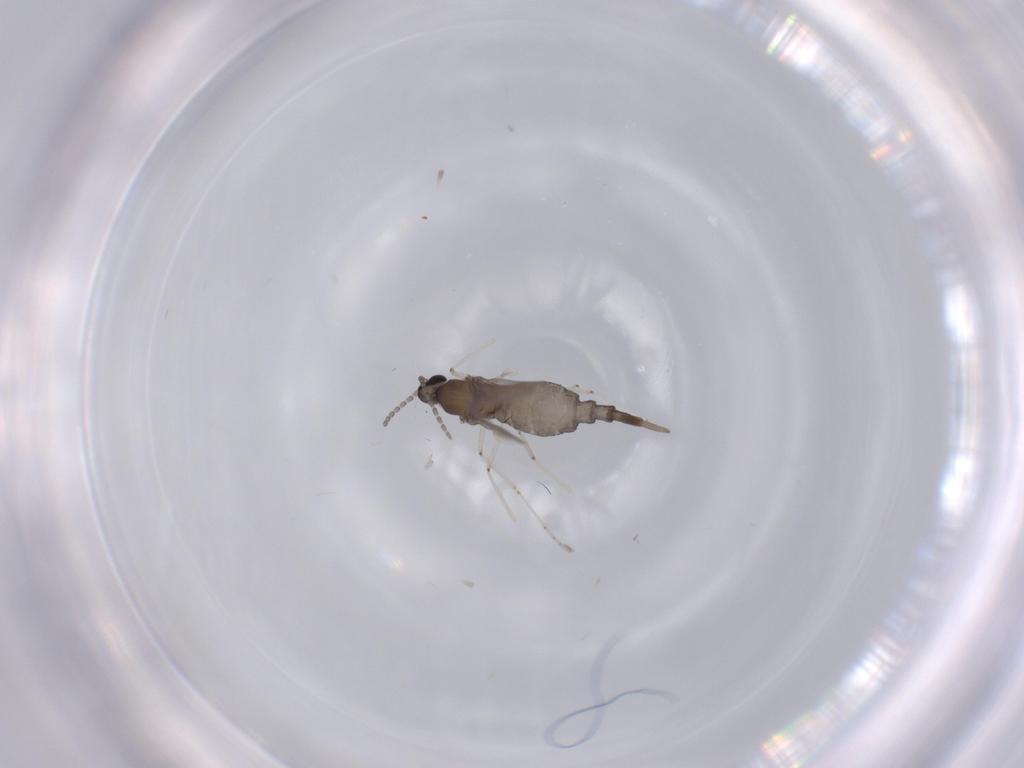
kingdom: Animalia
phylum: Arthropoda
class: Insecta
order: Diptera
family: Cecidomyiidae
